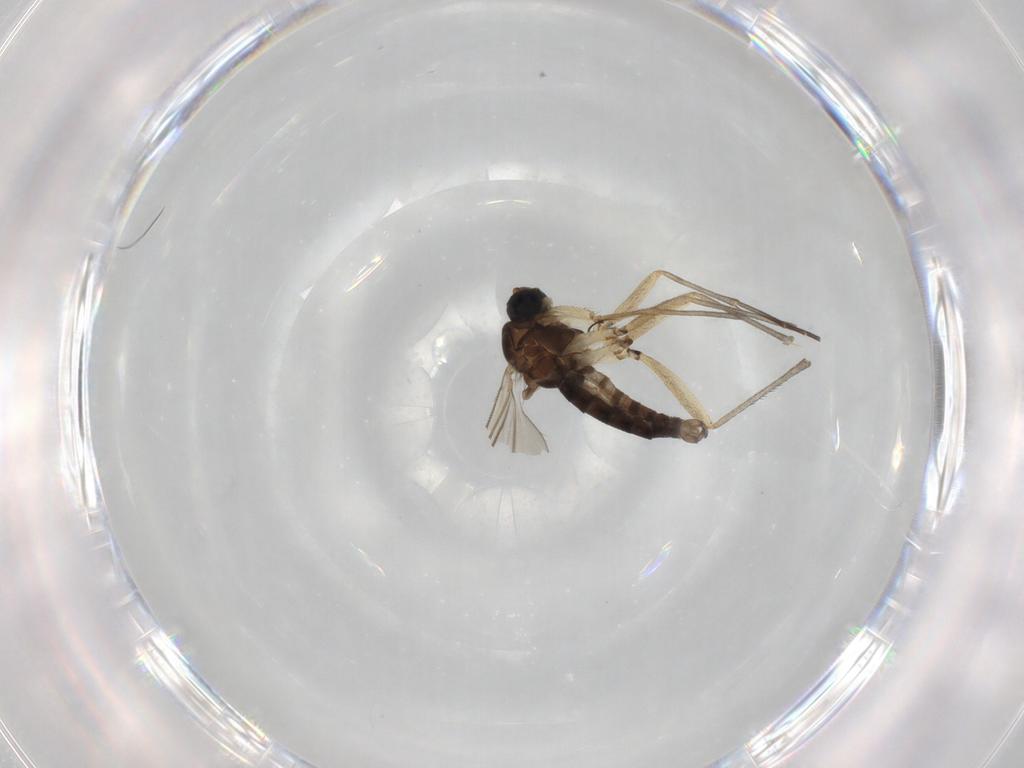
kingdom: Animalia
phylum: Arthropoda
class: Insecta
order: Diptera
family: Sciaridae
